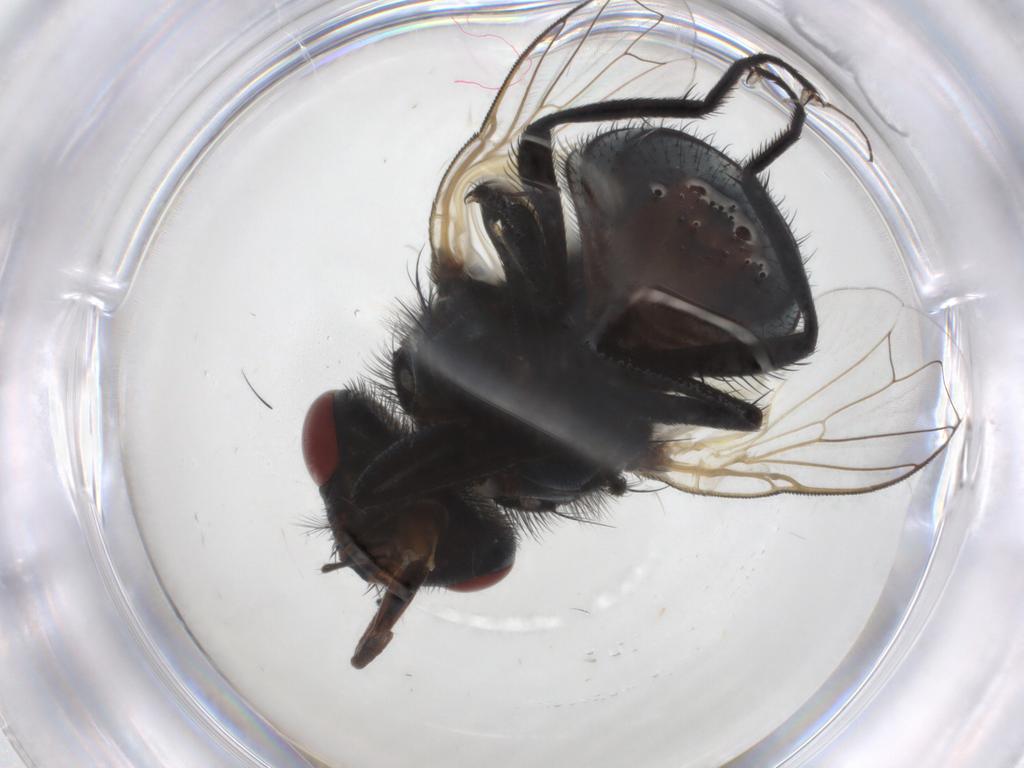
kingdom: Animalia
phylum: Arthropoda
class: Insecta
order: Diptera
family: Muscidae
